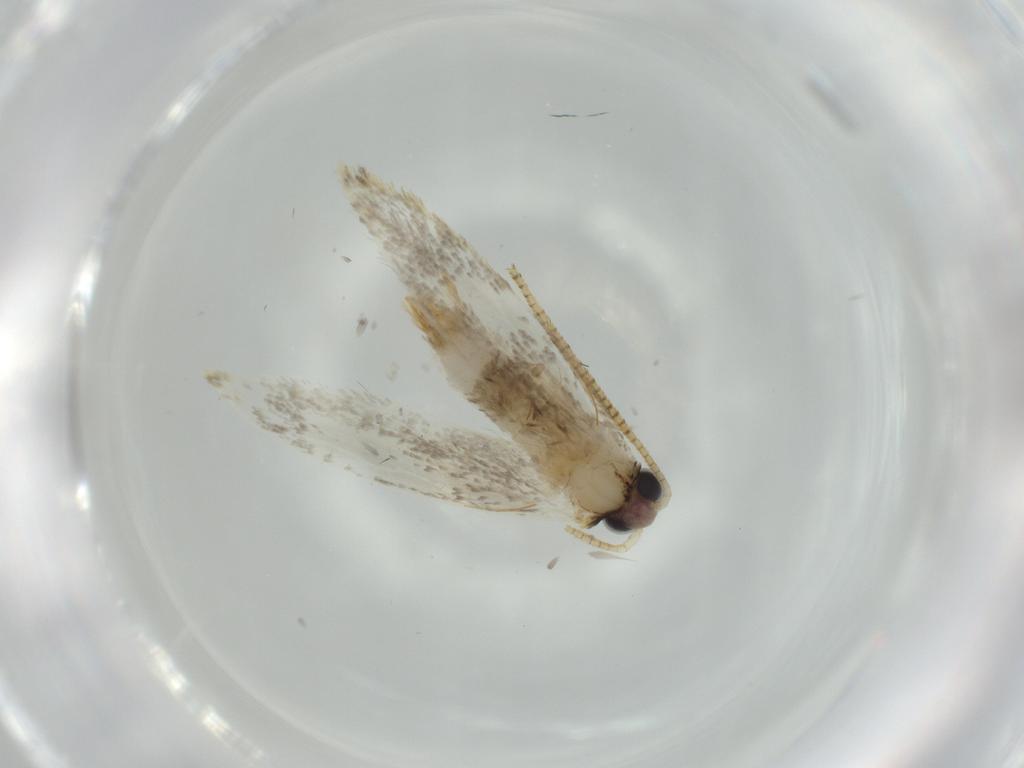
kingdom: Animalia
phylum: Arthropoda
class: Insecta
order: Lepidoptera
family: Tineidae
